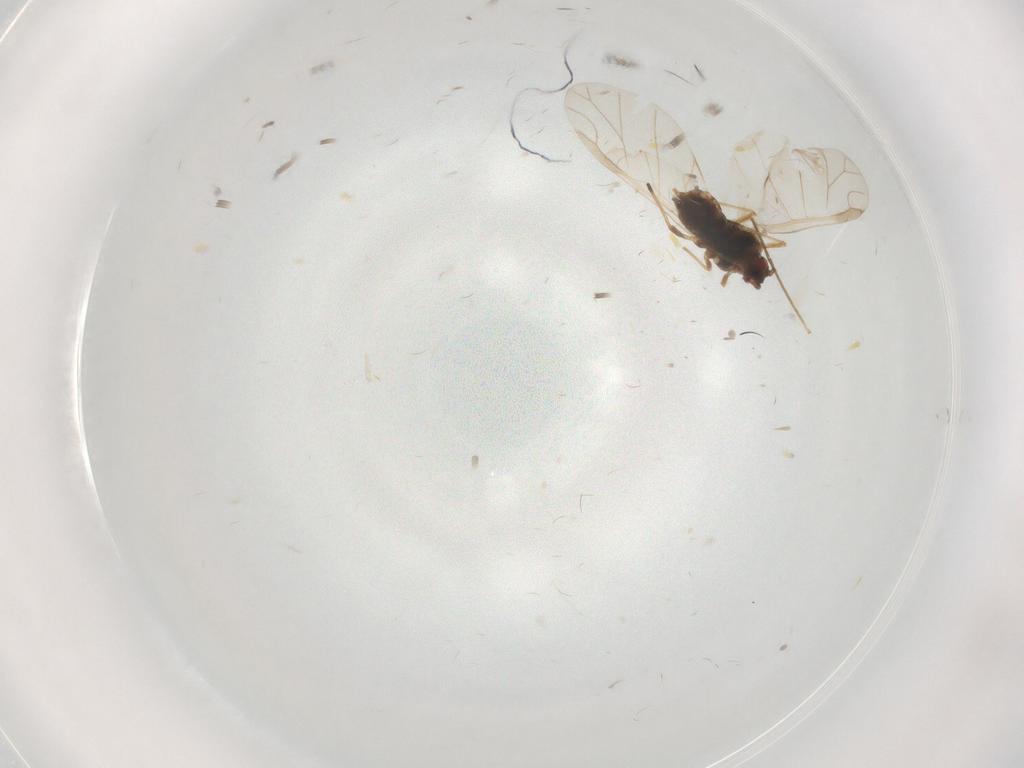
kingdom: Animalia
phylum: Arthropoda
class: Insecta
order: Hemiptera
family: Aphididae
